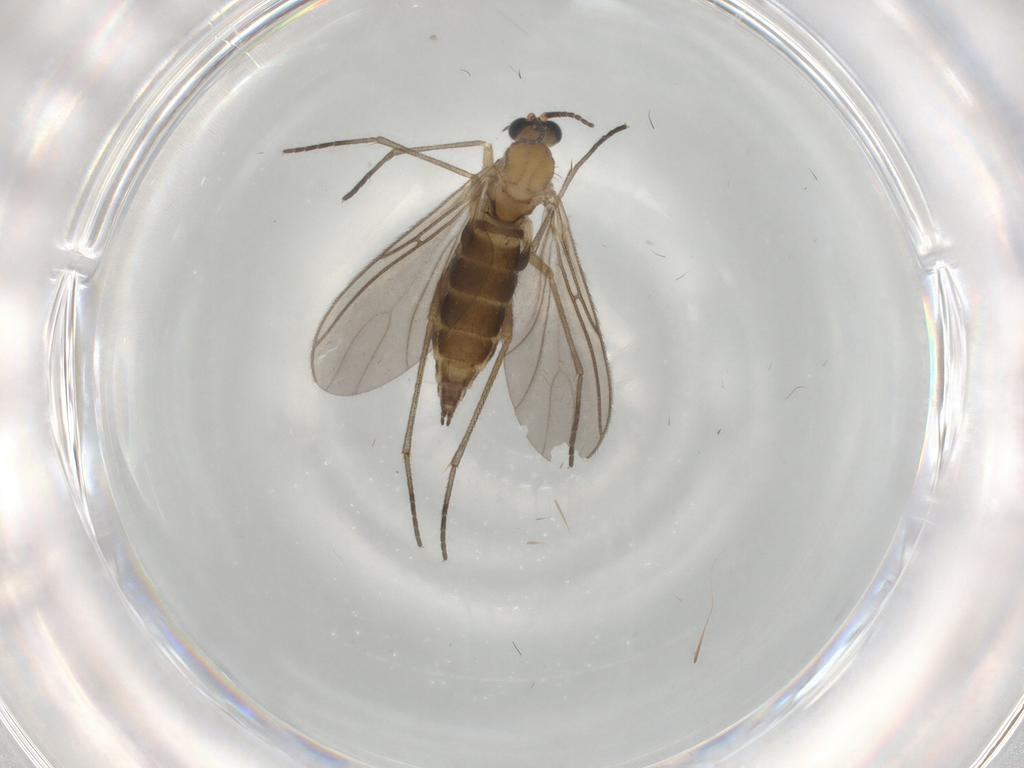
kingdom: Animalia
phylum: Arthropoda
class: Insecta
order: Diptera
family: Sciaridae
